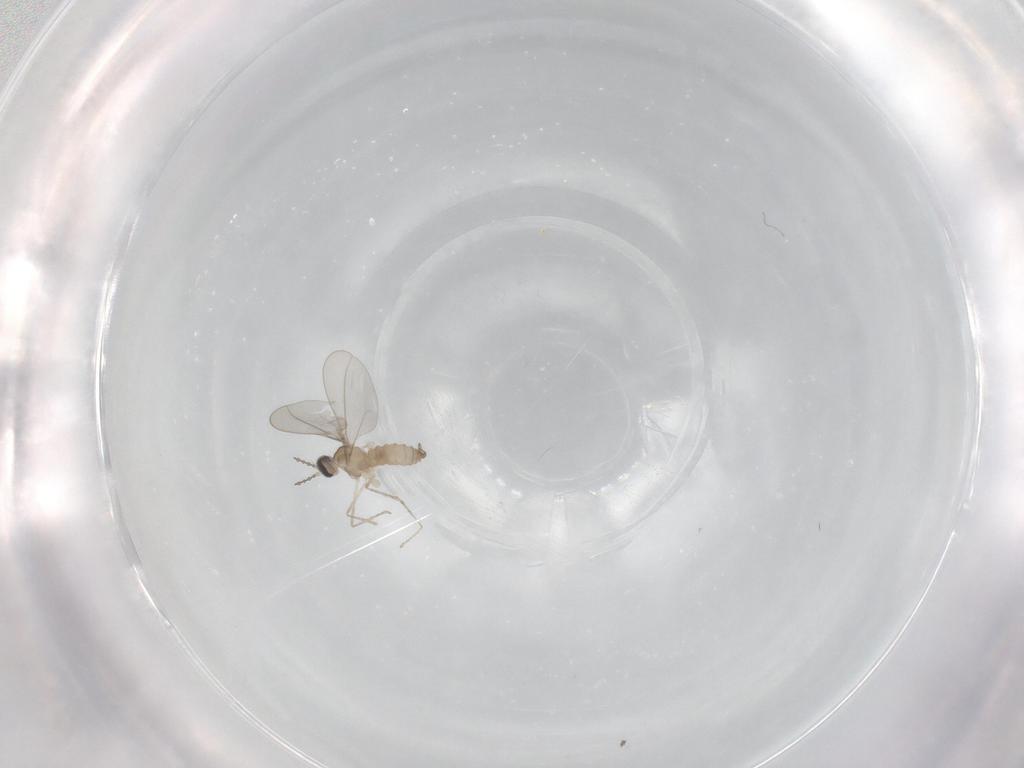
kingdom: Animalia
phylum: Arthropoda
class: Insecta
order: Diptera
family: Cecidomyiidae
